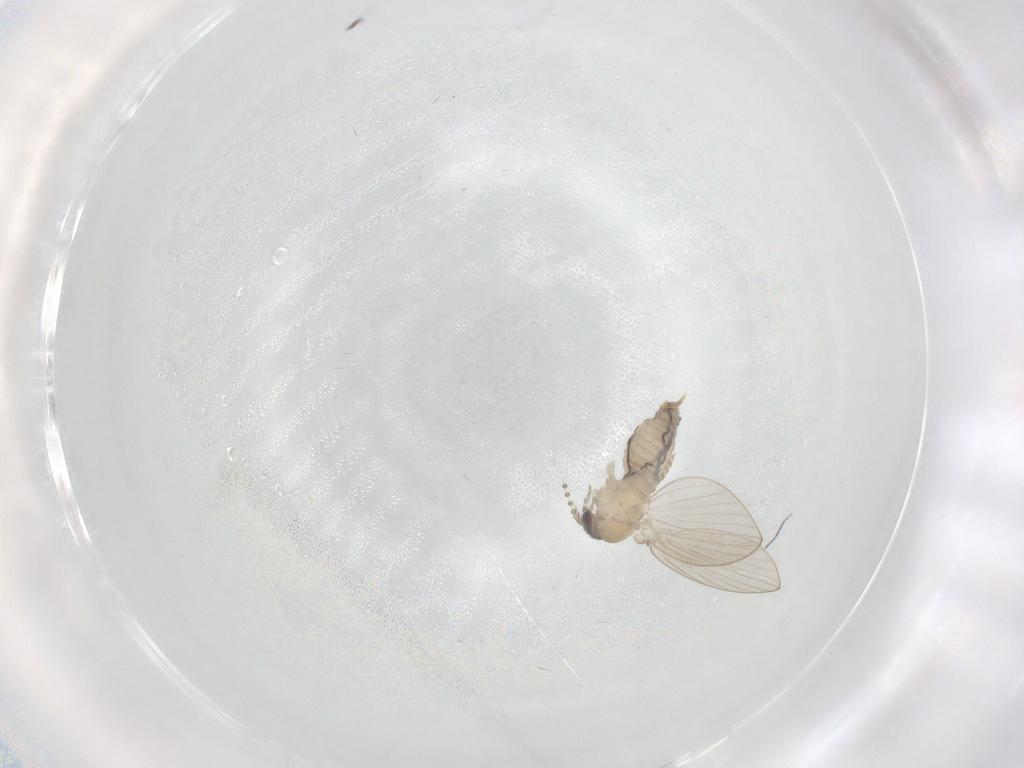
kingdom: Animalia
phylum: Arthropoda
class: Insecta
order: Diptera
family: Psychodidae
